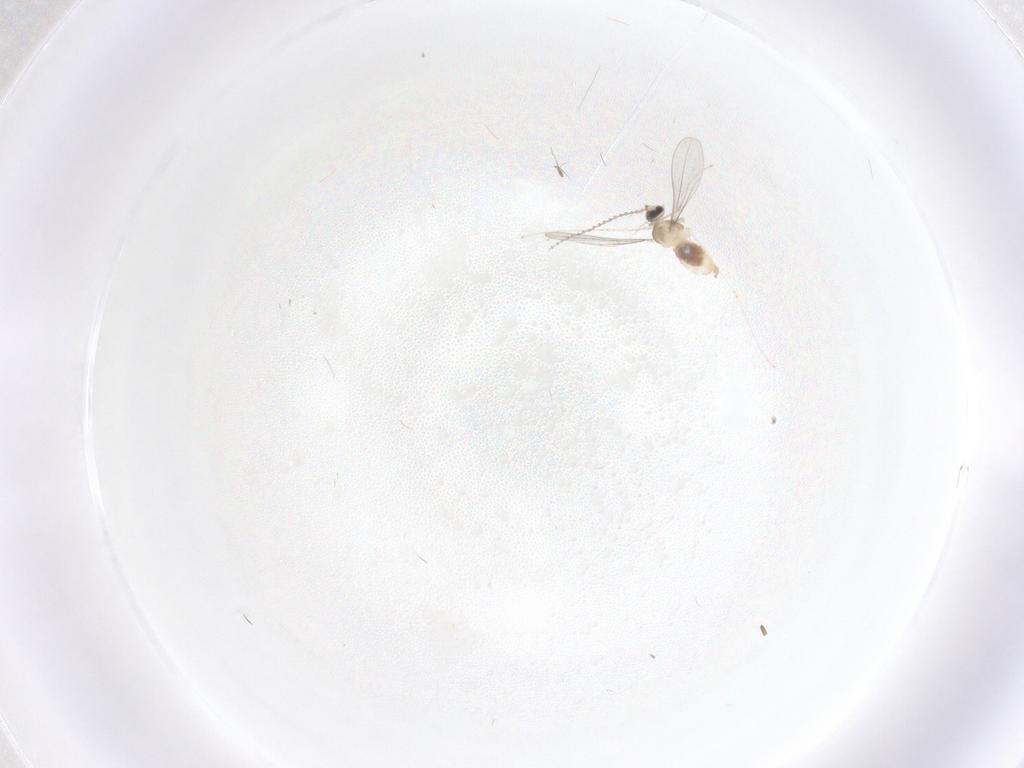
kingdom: Animalia
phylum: Arthropoda
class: Insecta
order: Diptera
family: Cecidomyiidae
